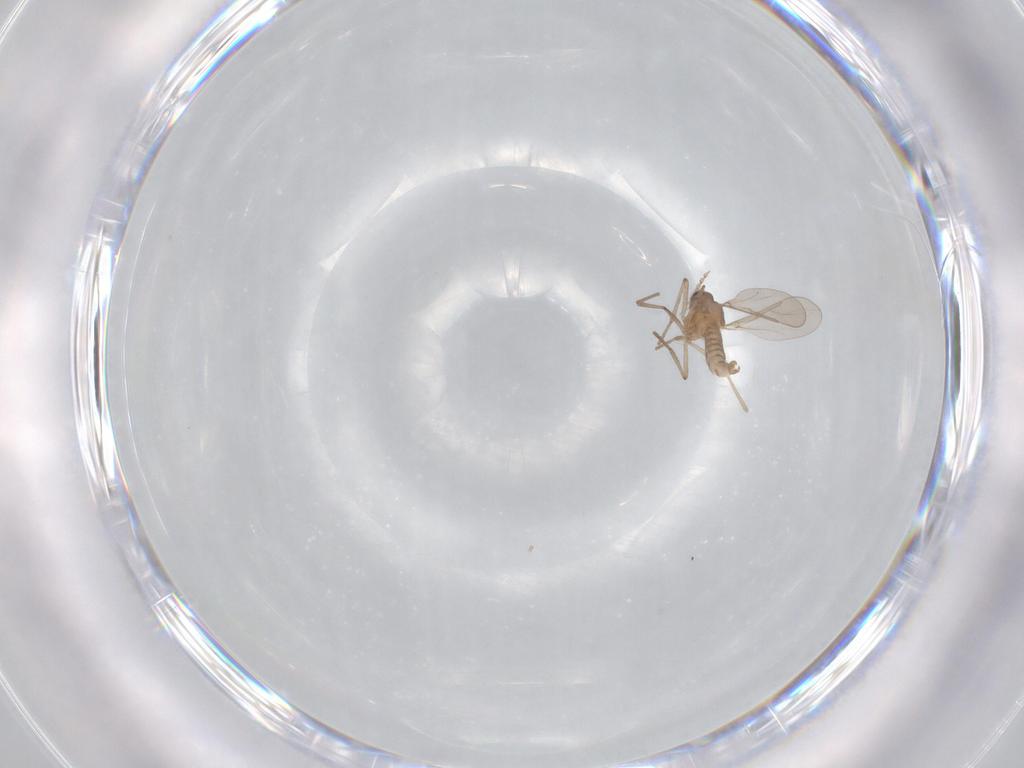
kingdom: Animalia
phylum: Arthropoda
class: Insecta
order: Diptera
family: Cecidomyiidae
